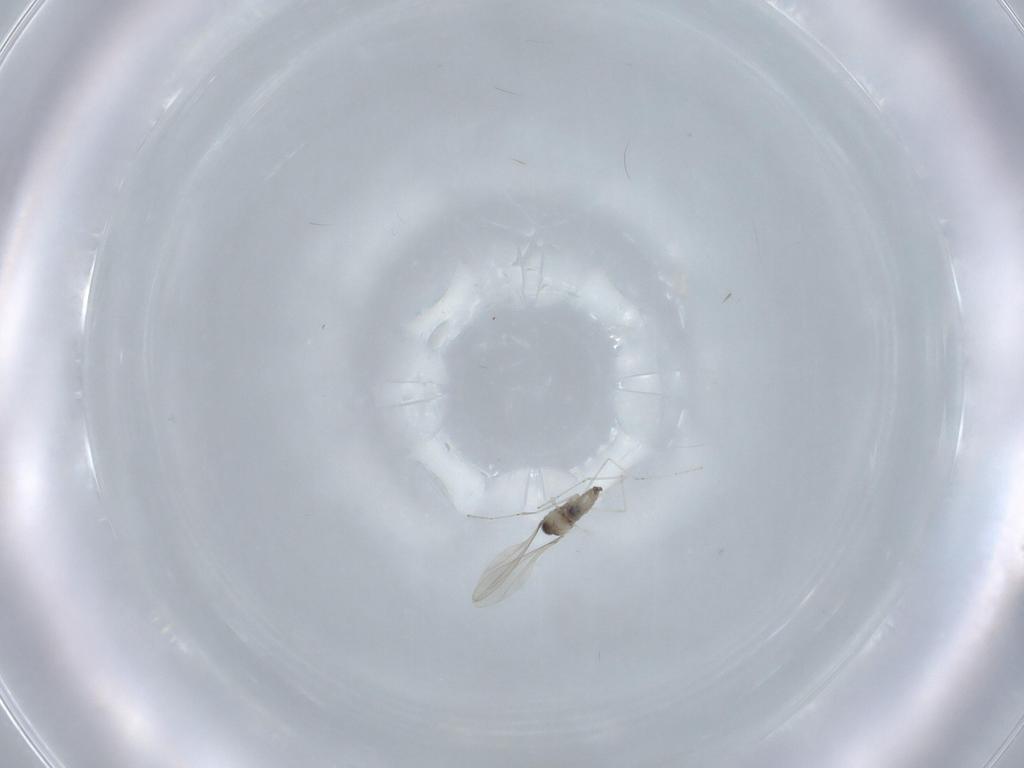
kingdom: Animalia
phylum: Arthropoda
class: Insecta
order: Diptera
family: Cecidomyiidae
